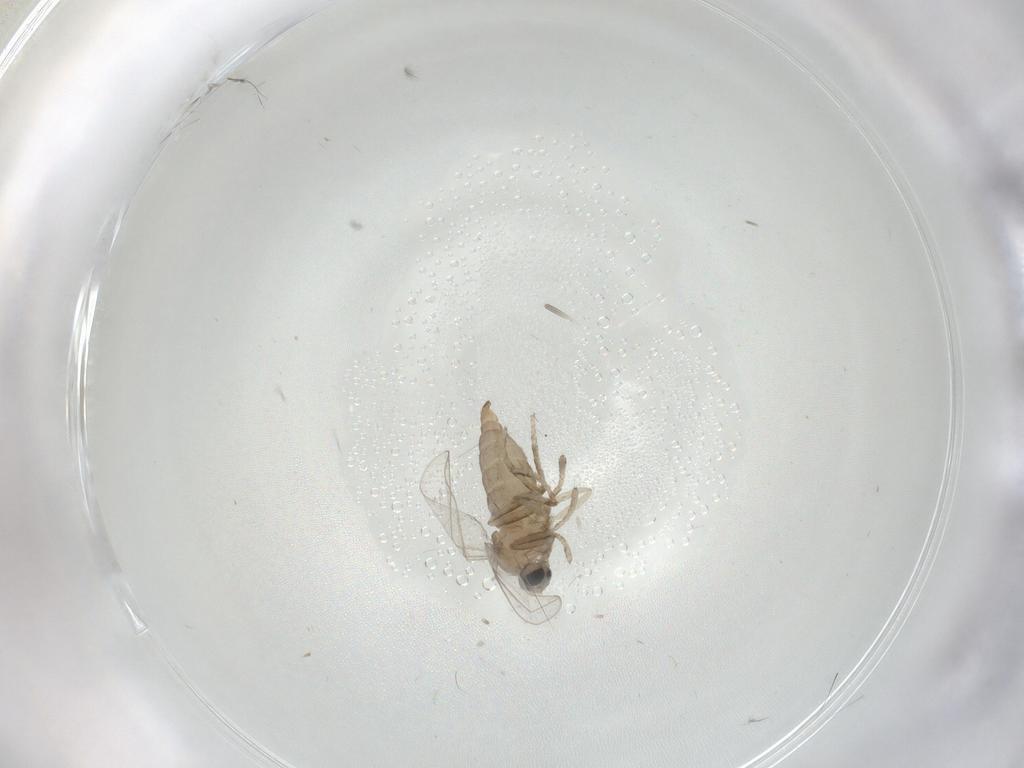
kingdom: Animalia
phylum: Arthropoda
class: Insecta
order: Diptera
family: Cecidomyiidae
